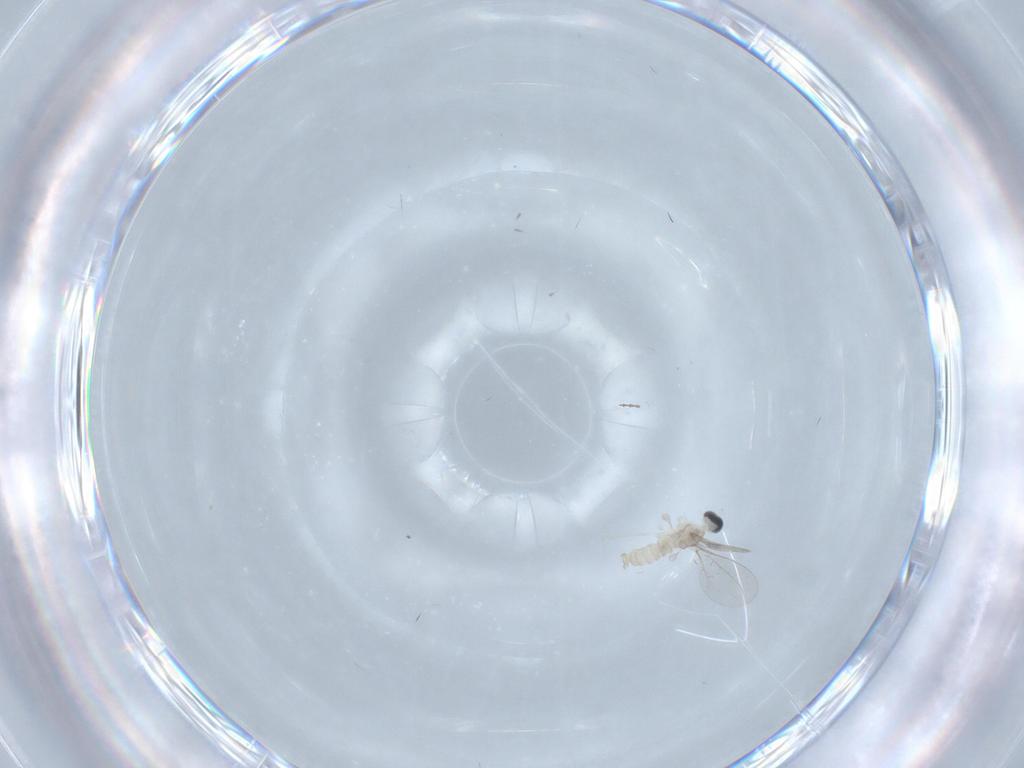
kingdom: Animalia
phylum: Arthropoda
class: Insecta
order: Diptera
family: Cecidomyiidae
